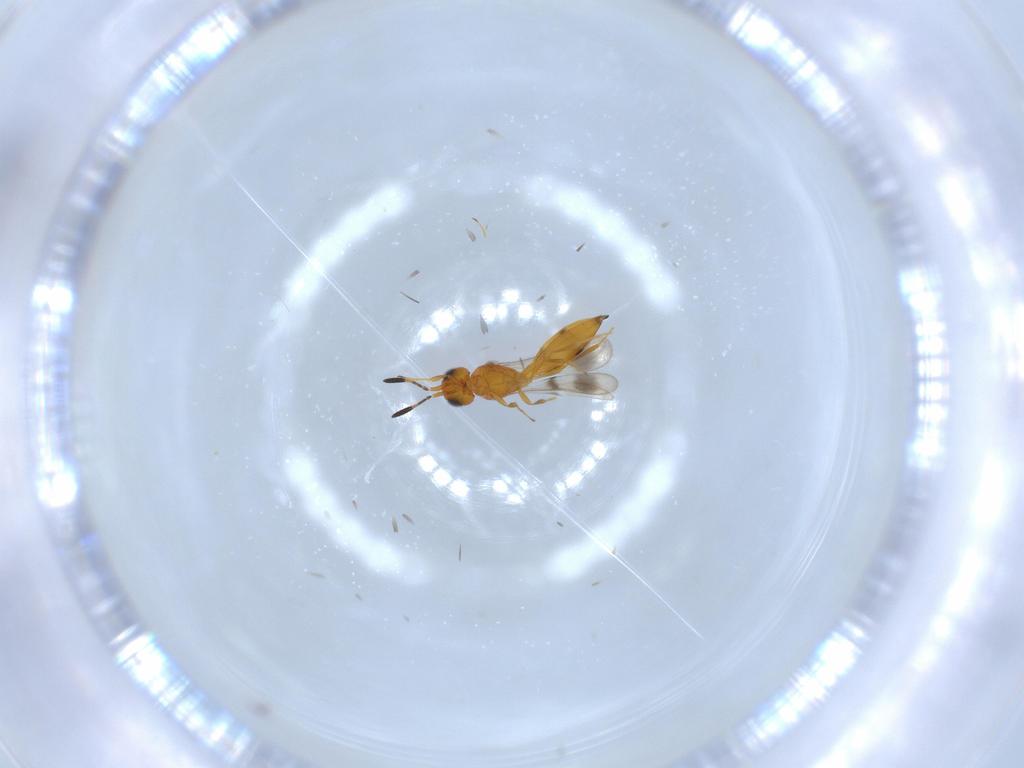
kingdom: Animalia
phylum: Arthropoda
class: Insecta
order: Hymenoptera
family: Scelionidae
